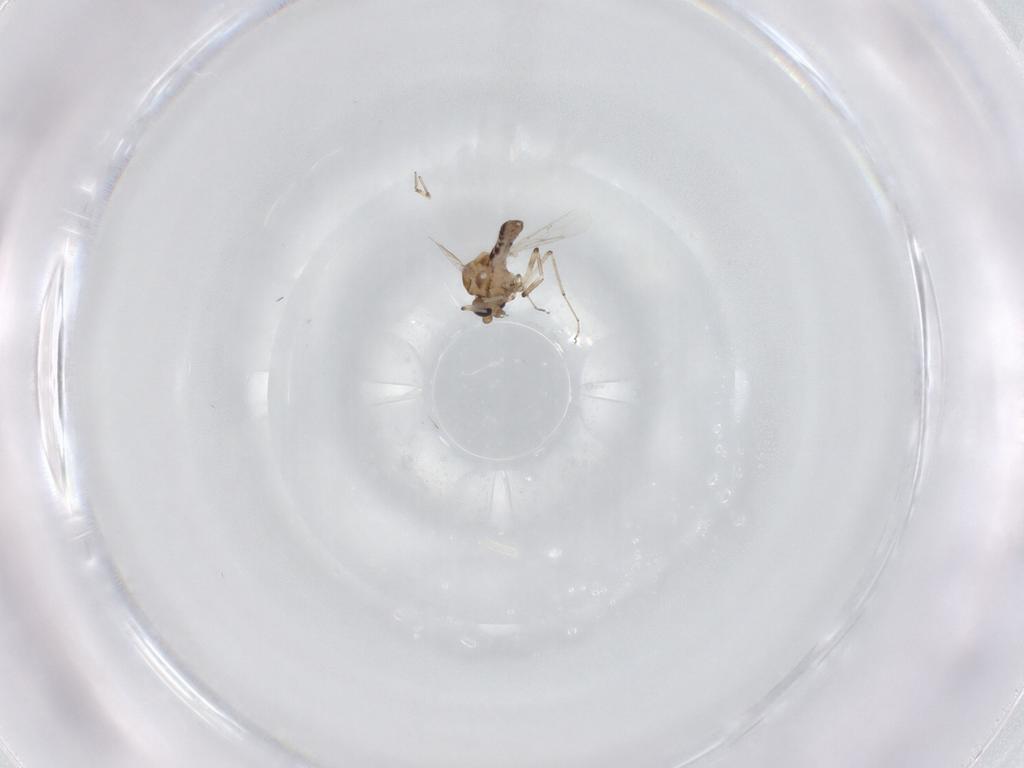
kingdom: Animalia
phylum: Arthropoda
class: Insecta
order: Diptera
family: Ceratopogonidae
